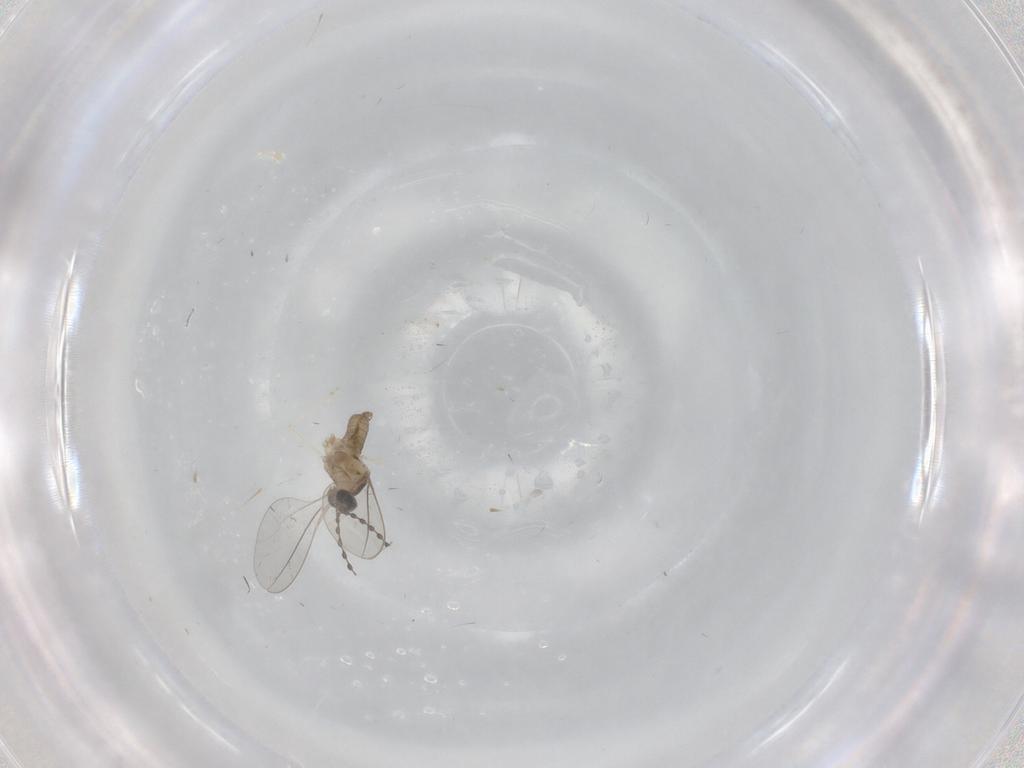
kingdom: Animalia
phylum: Arthropoda
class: Insecta
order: Diptera
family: Cecidomyiidae
